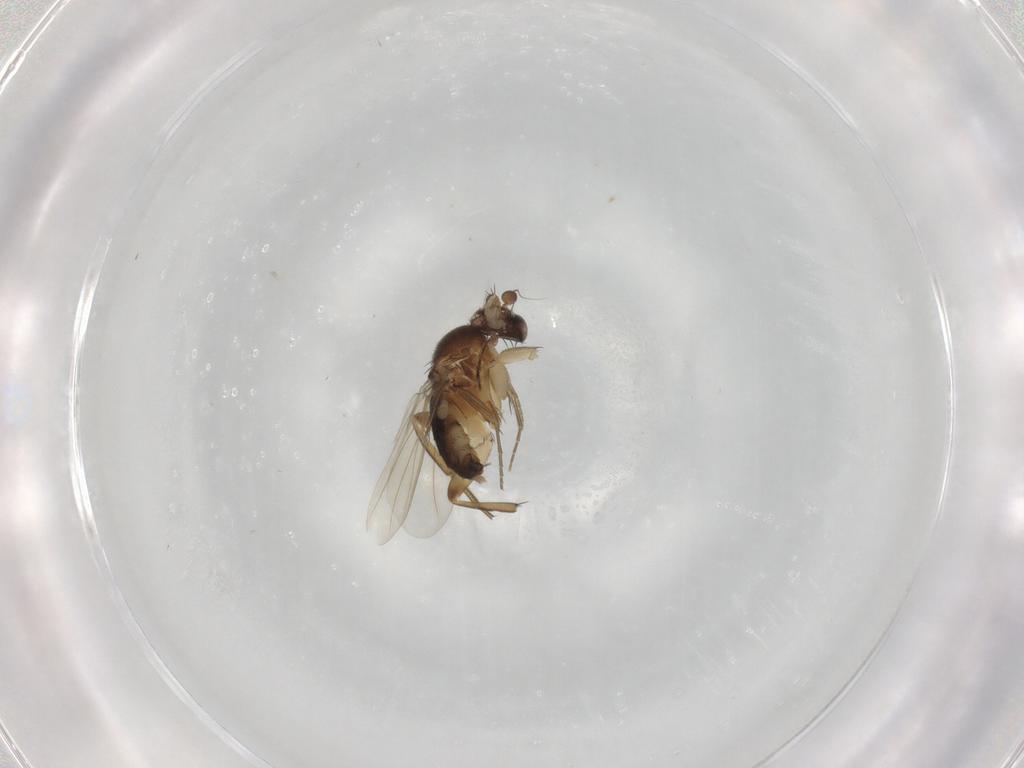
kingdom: Animalia
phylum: Arthropoda
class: Insecta
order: Diptera
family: Phoridae
